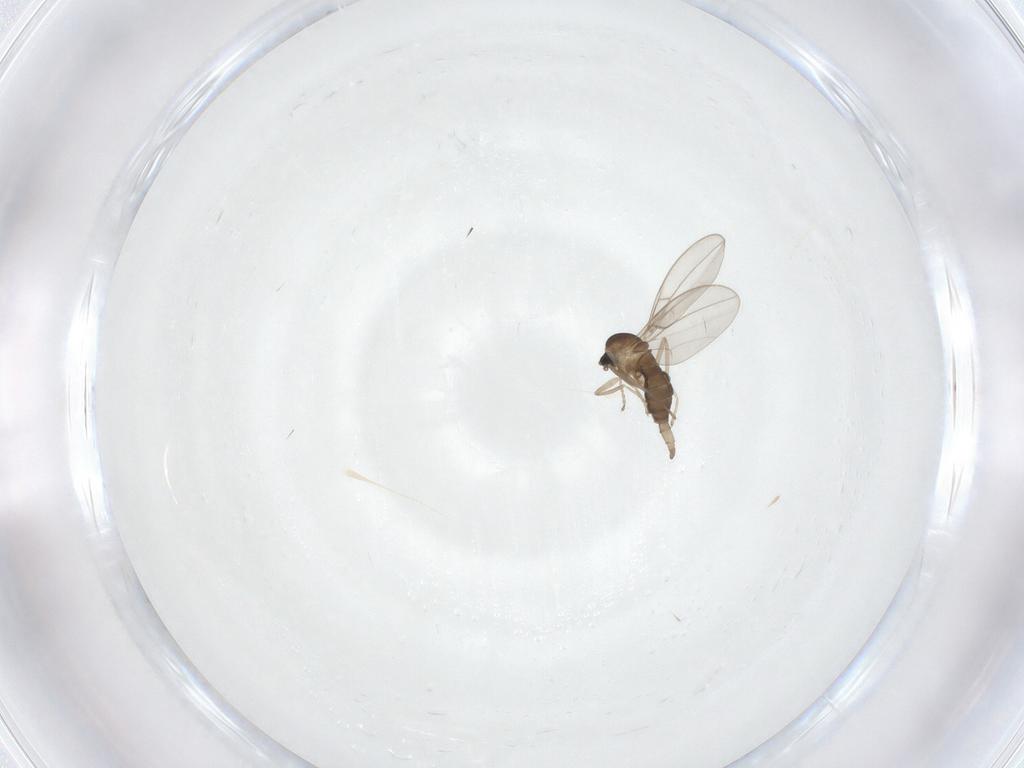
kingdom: Animalia
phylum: Arthropoda
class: Insecta
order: Diptera
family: Cecidomyiidae
